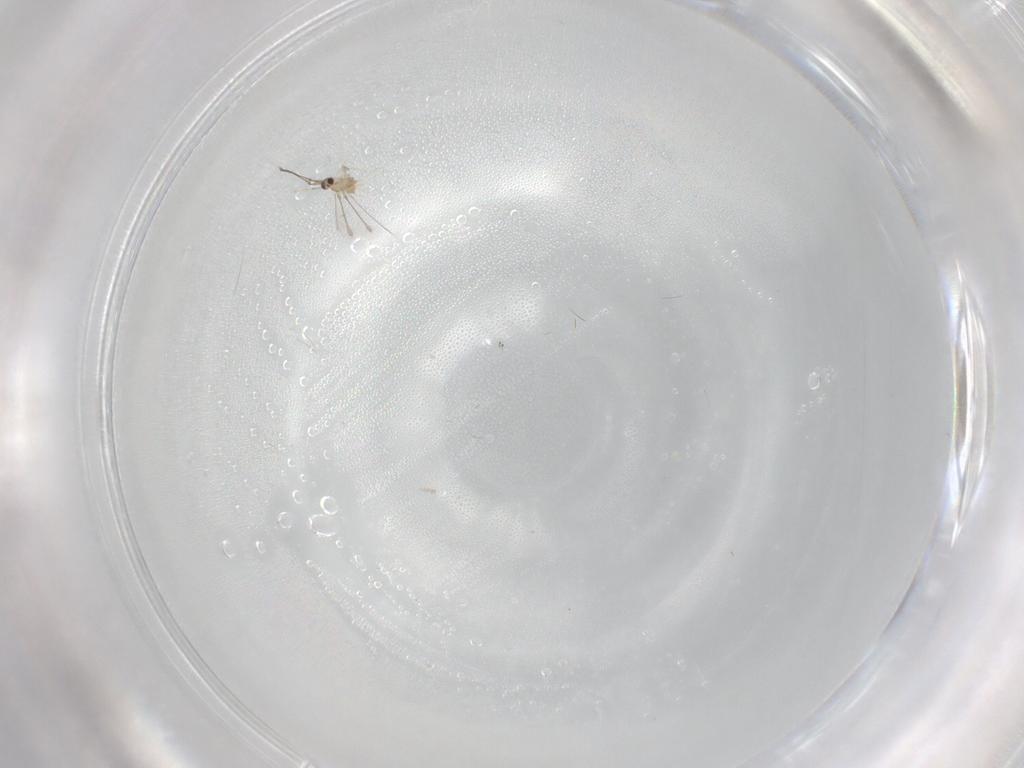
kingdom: Animalia
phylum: Arthropoda
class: Insecta
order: Hymenoptera
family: Mymaridae
